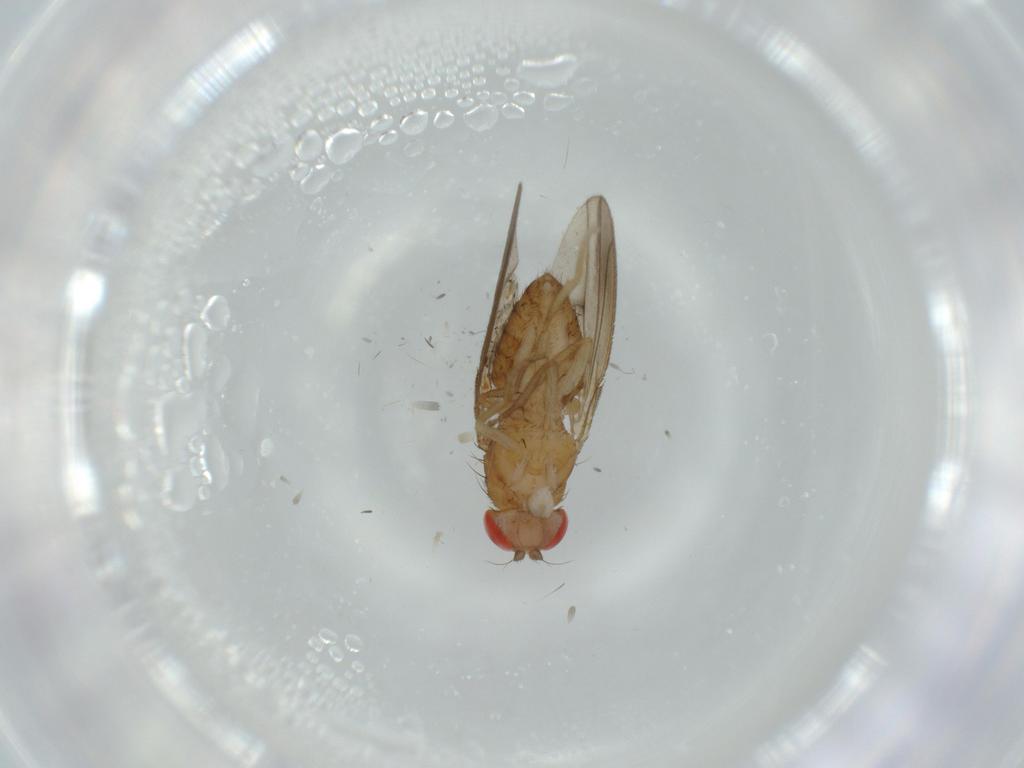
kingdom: Animalia
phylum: Arthropoda
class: Insecta
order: Diptera
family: Drosophilidae
